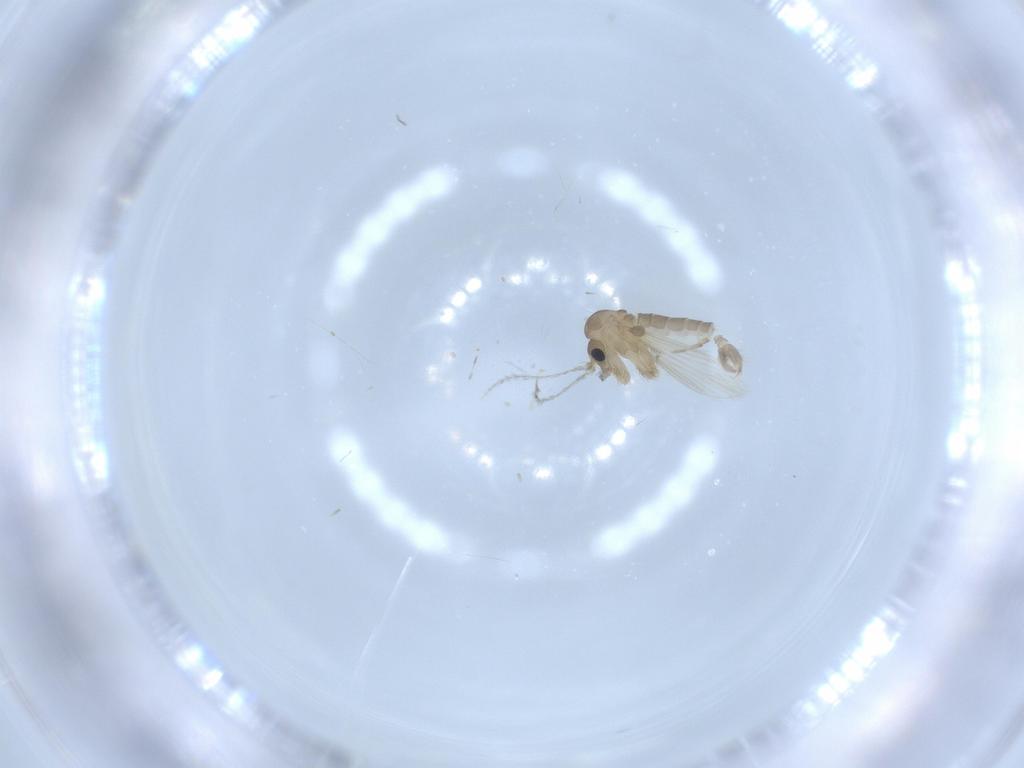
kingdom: Animalia
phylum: Arthropoda
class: Insecta
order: Diptera
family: Psychodidae
